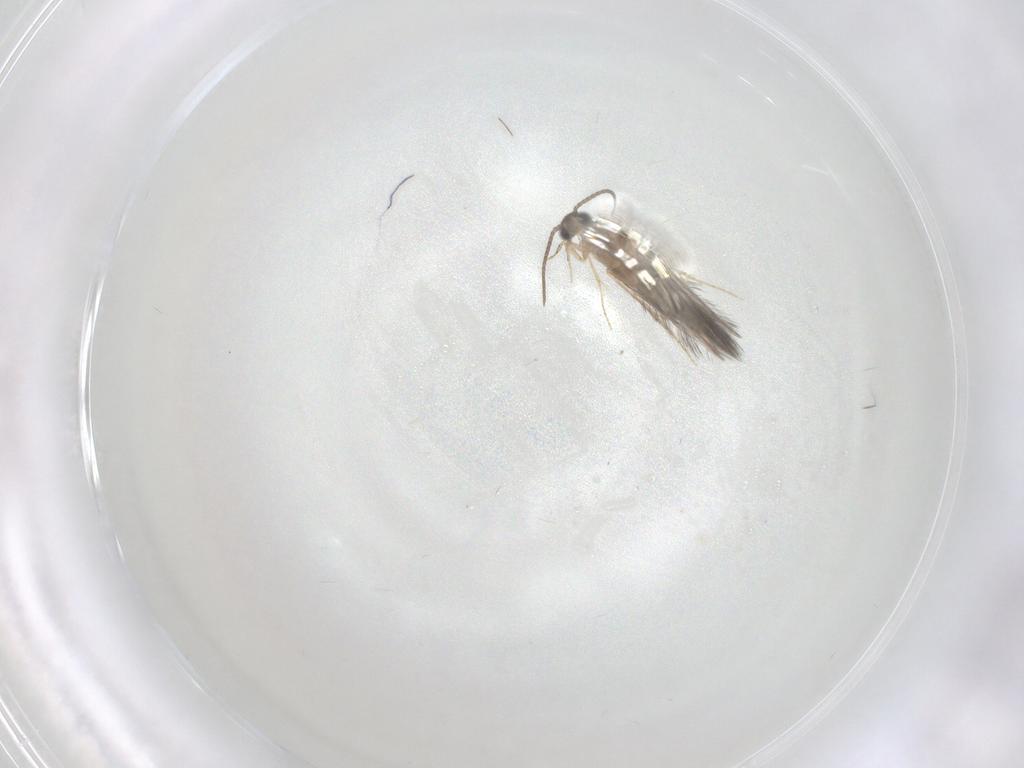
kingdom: Animalia
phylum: Arthropoda
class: Insecta
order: Trichoptera
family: Hydroptilidae
